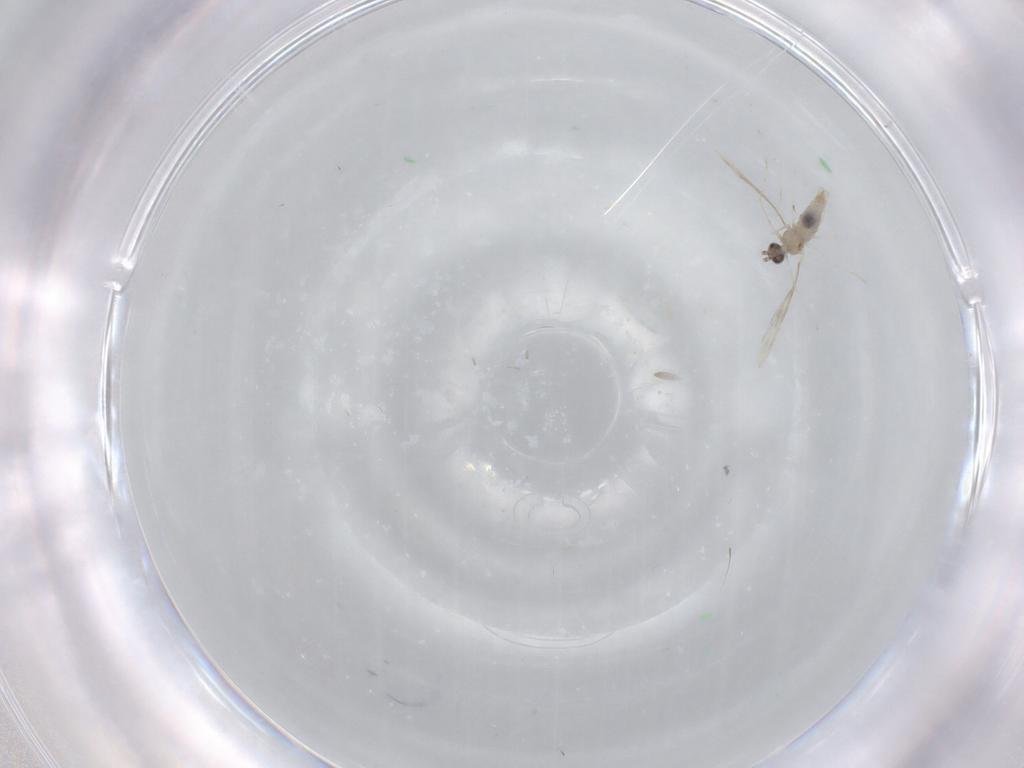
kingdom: Animalia
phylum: Arthropoda
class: Insecta
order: Diptera
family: Cecidomyiidae
